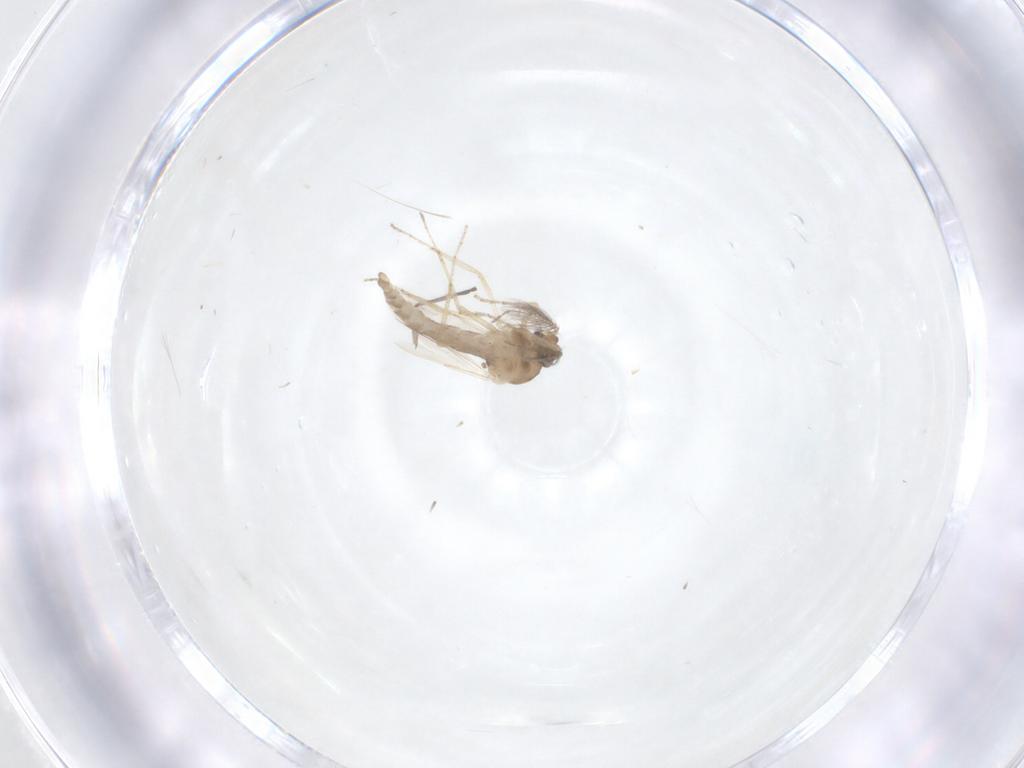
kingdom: Animalia
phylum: Arthropoda
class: Insecta
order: Diptera
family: Ceratopogonidae
